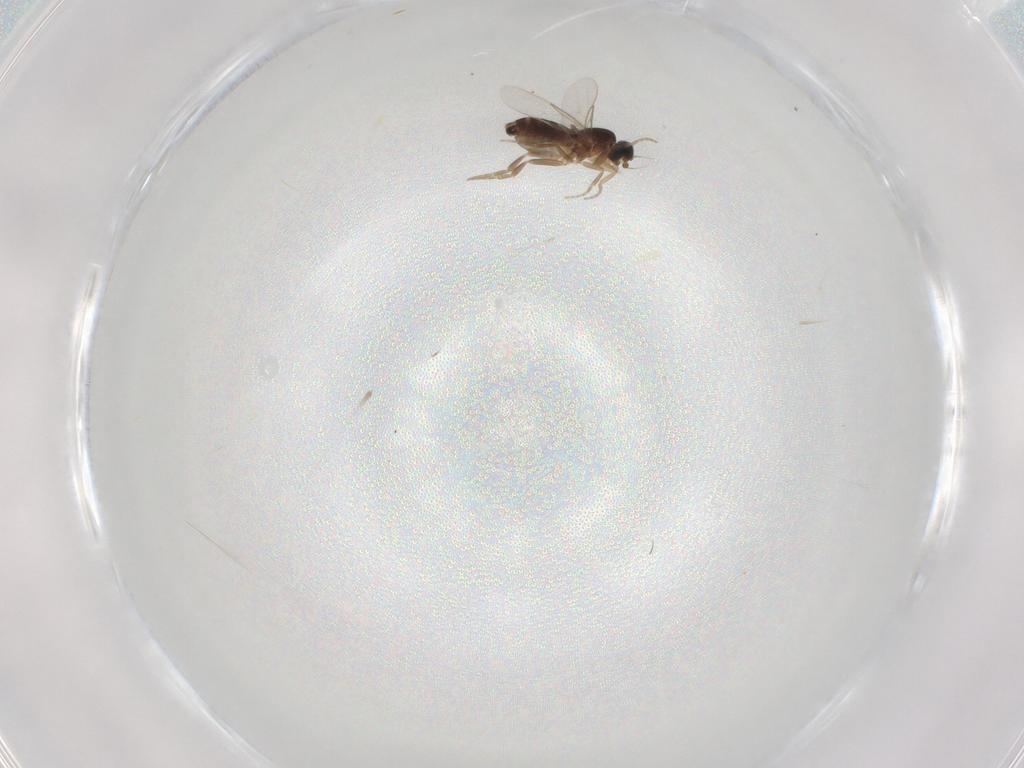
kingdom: Animalia
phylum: Arthropoda
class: Insecta
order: Diptera
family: Phoridae
